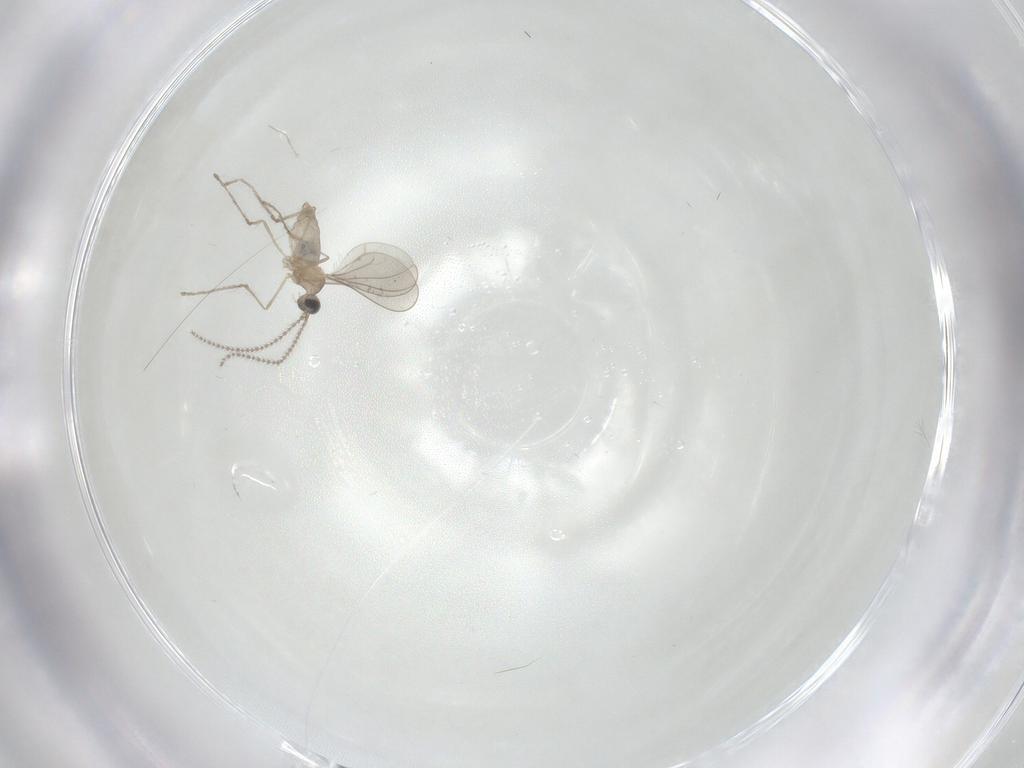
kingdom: Animalia
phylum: Arthropoda
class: Insecta
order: Diptera
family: Cecidomyiidae
